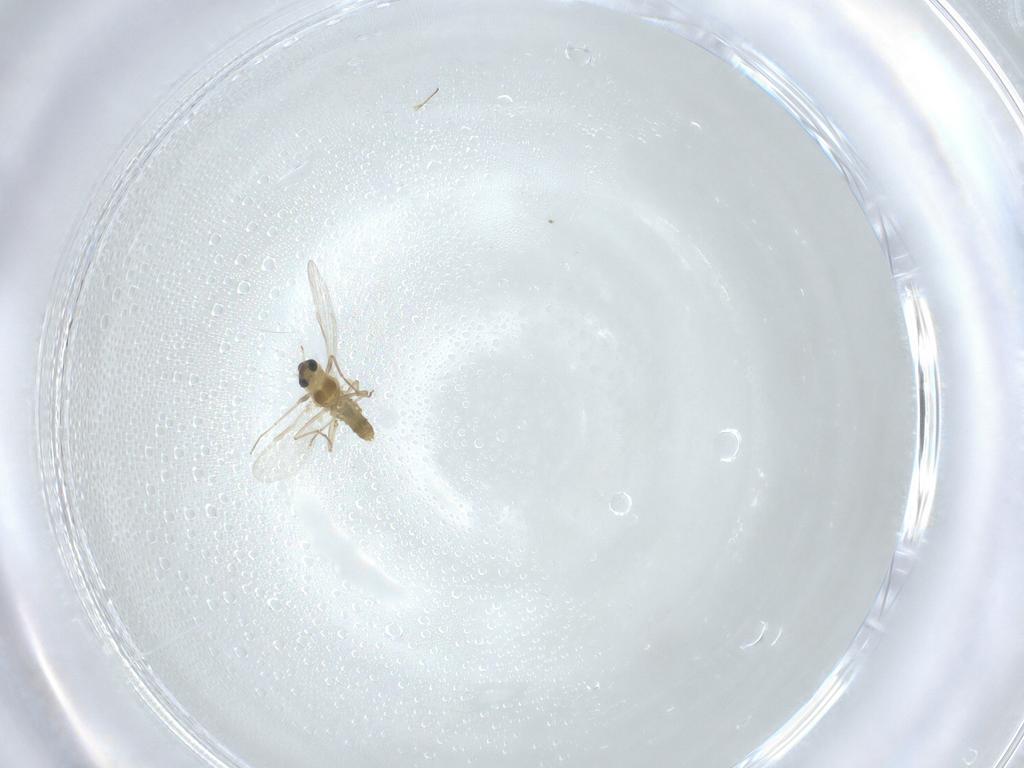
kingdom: Animalia
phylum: Arthropoda
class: Insecta
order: Diptera
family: Chironomidae
